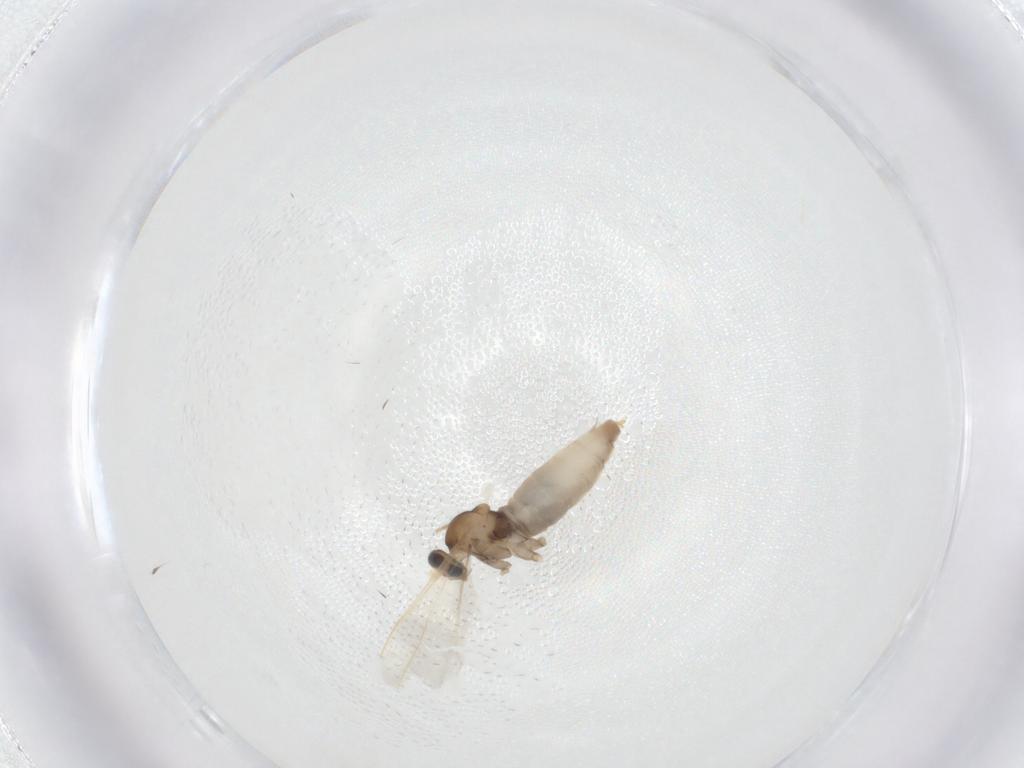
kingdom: Animalia
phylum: Arthropoda
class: Insecta
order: Diptera
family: Cecidomyiidae
